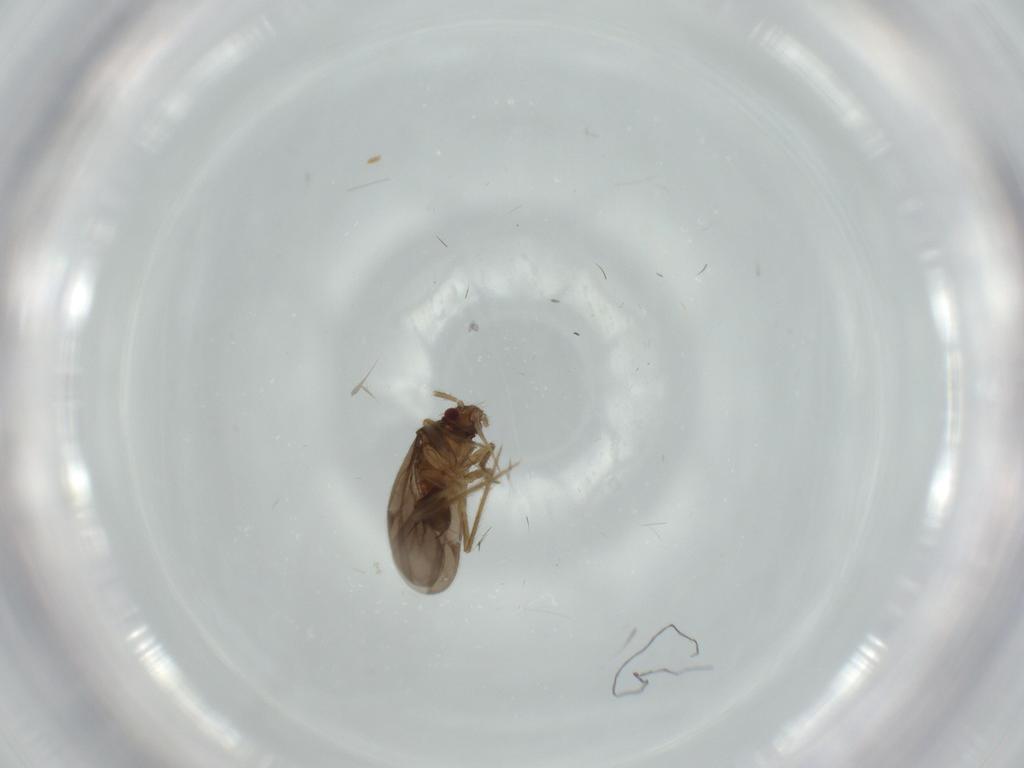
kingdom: Animalia
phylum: Arthropoda
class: Insecta
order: Hemiptera
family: Ceratocombidae
